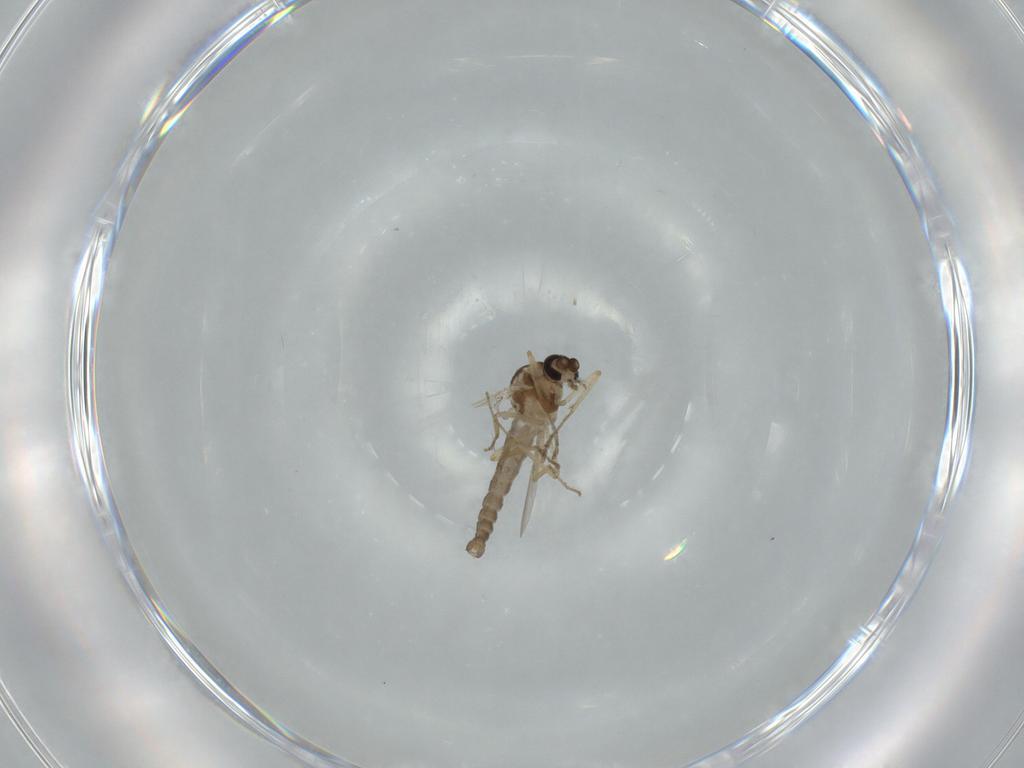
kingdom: Animalia
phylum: Arthropoda
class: Insecta
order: Diptera
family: Ceratopogonidae
